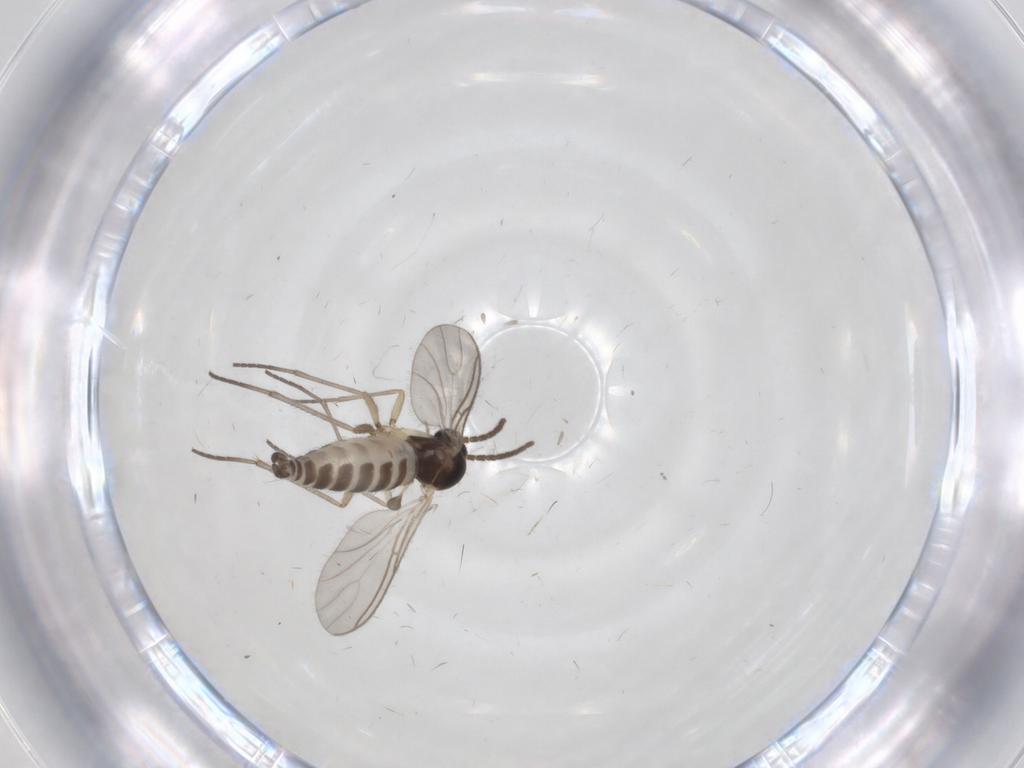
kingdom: Animalia
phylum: Arthropoda
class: Insecta
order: Diptera
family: Sciaridae
